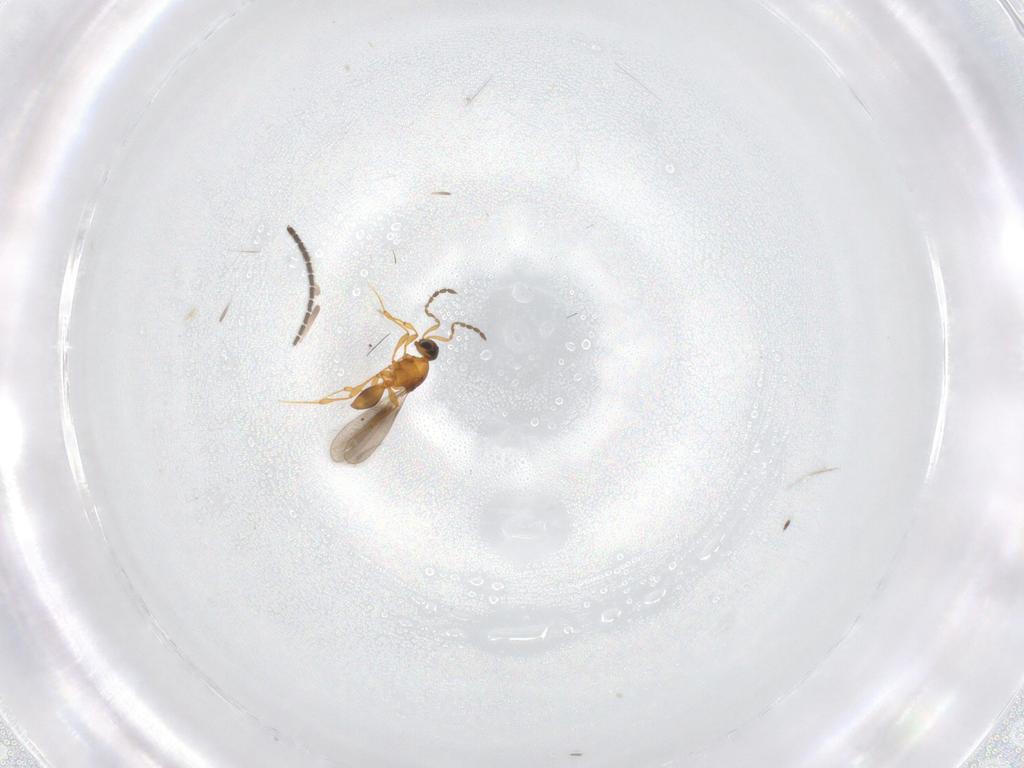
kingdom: Animalia
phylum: Arthropoda
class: Insecta
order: Hymenoptera
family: Platygastridae
